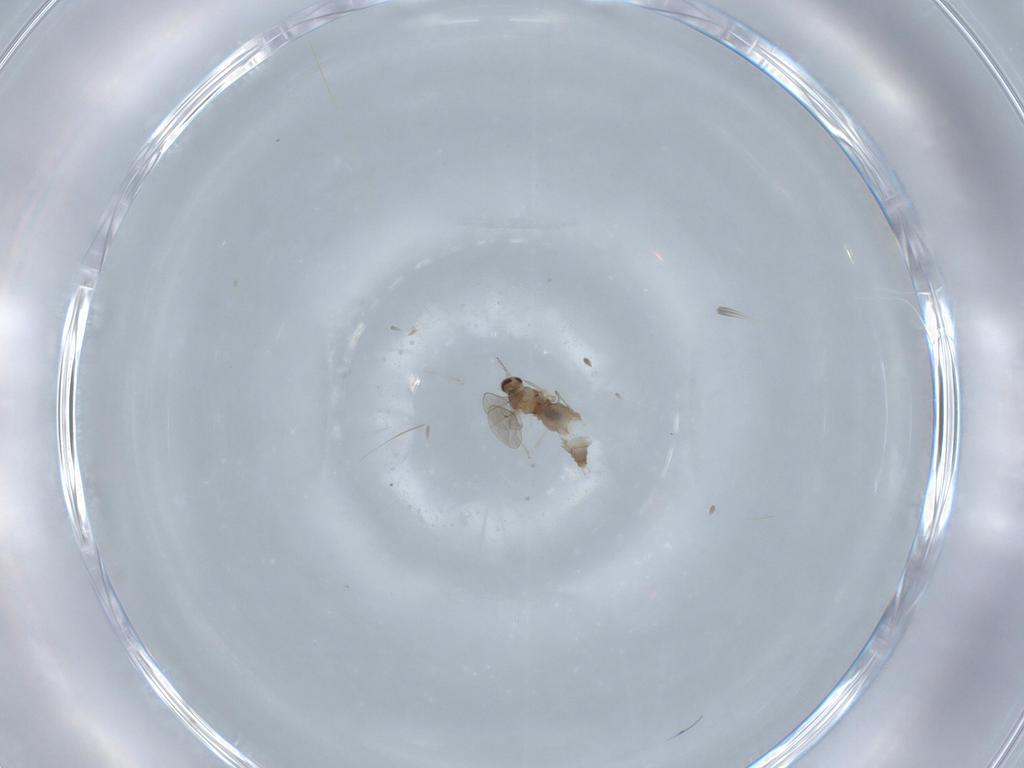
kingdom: Animalia
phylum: Arthropoda
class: Insecta
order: Diptera
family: Cecidomyiidae
